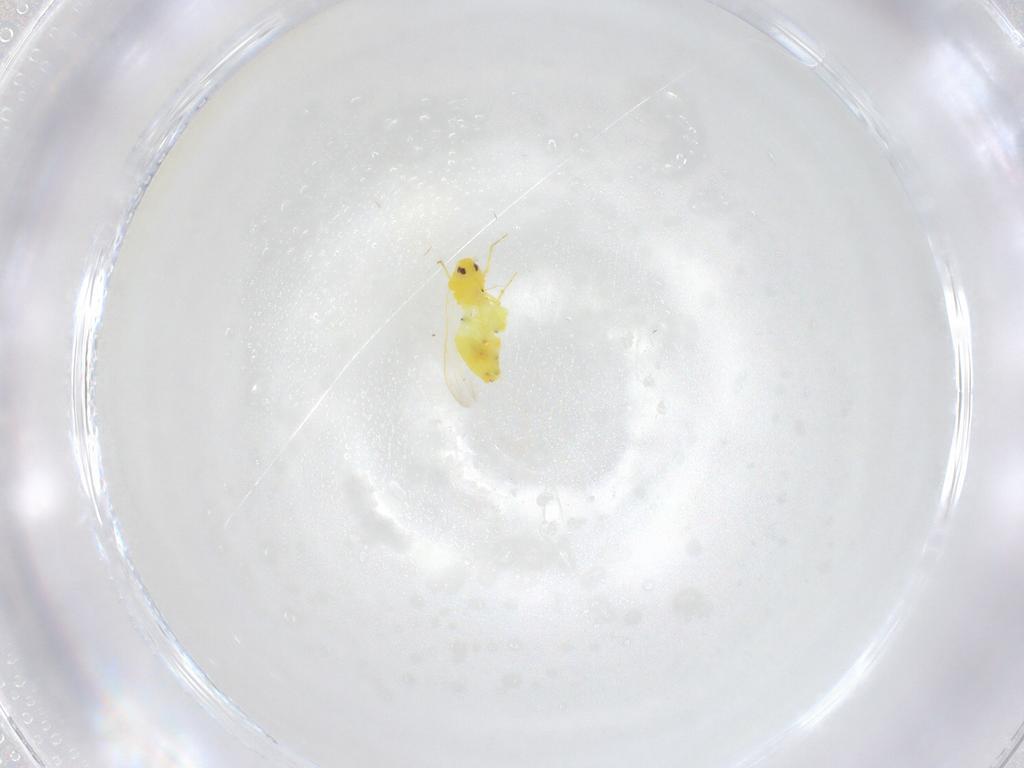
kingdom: Animalia
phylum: Arthropoda
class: Insecta
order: Hemiptera
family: Aleyrodidae
